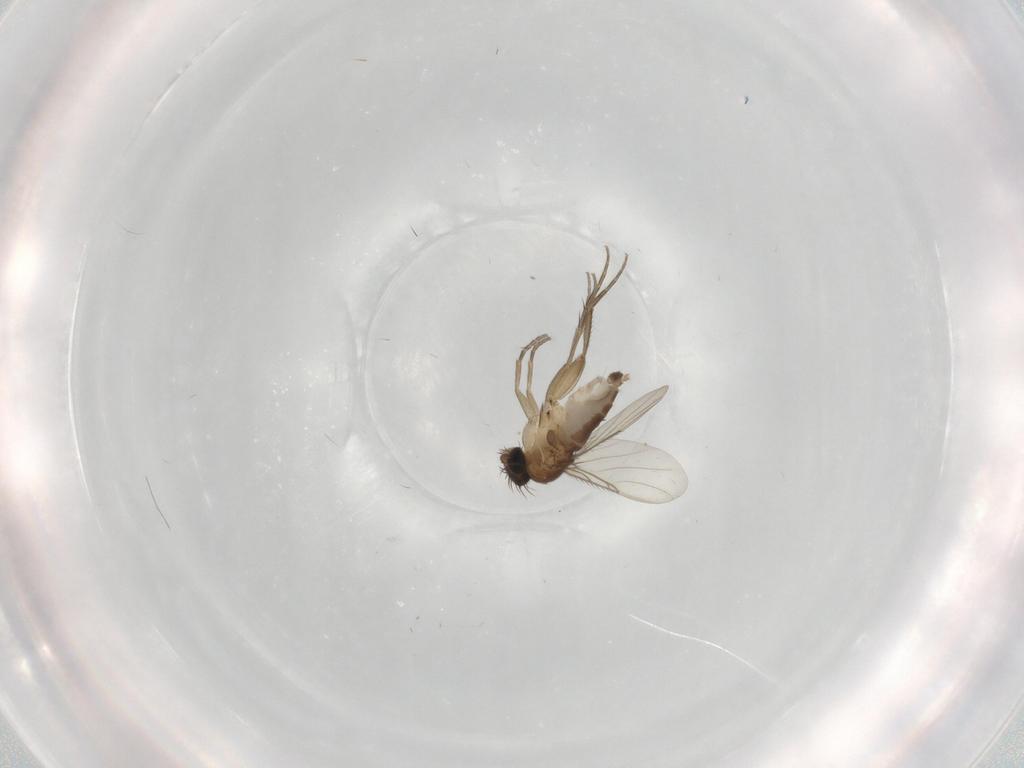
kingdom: Animalia
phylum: Arthropoda
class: Insecta
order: Diptera
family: Phoridae
